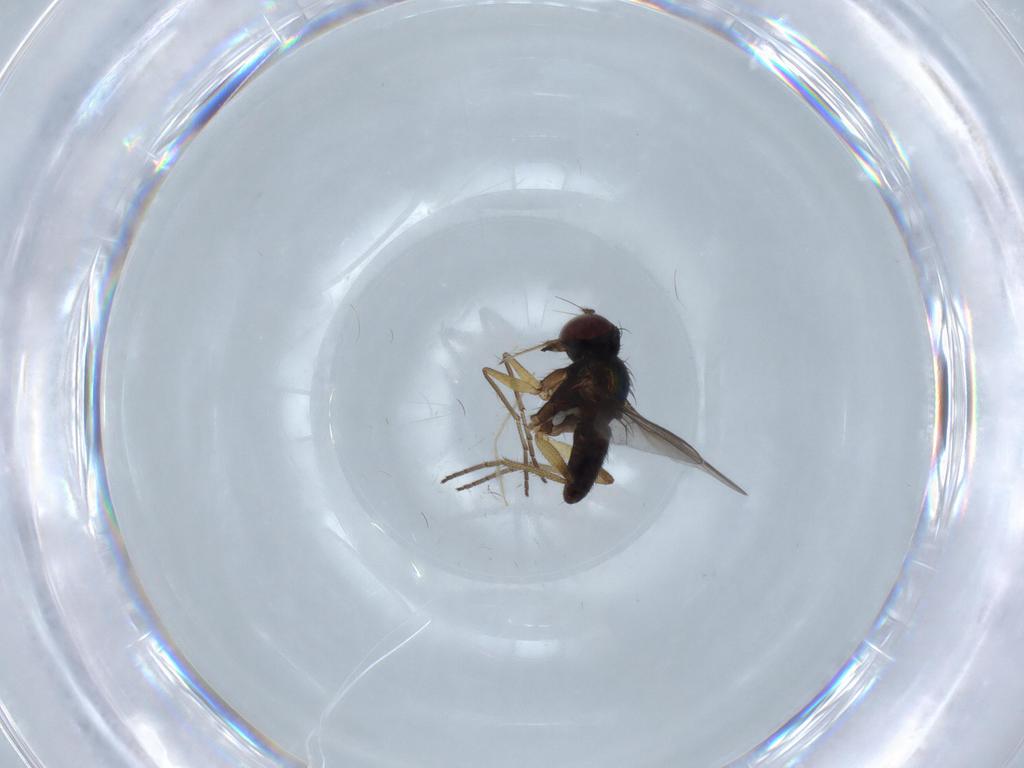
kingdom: Animalia
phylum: Arthropoda
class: Insecta
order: Diptera
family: Dolichopodidae
